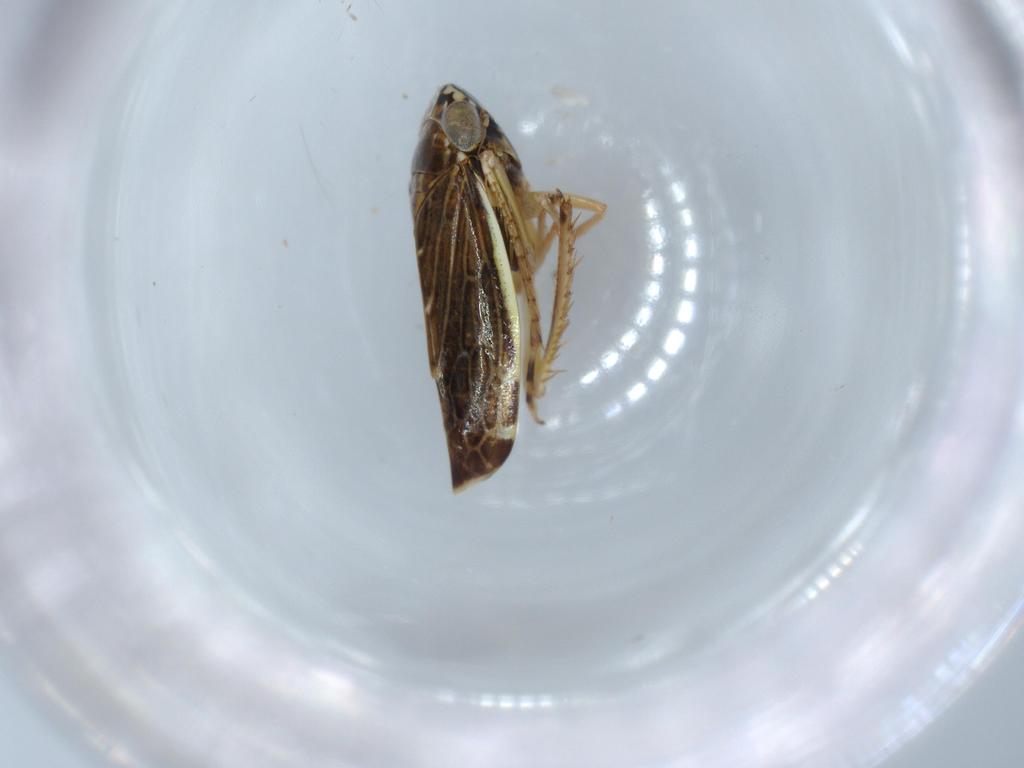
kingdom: Animalia
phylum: Arthropoda
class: Insecta
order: Hemiptera
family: Cicadellidae
